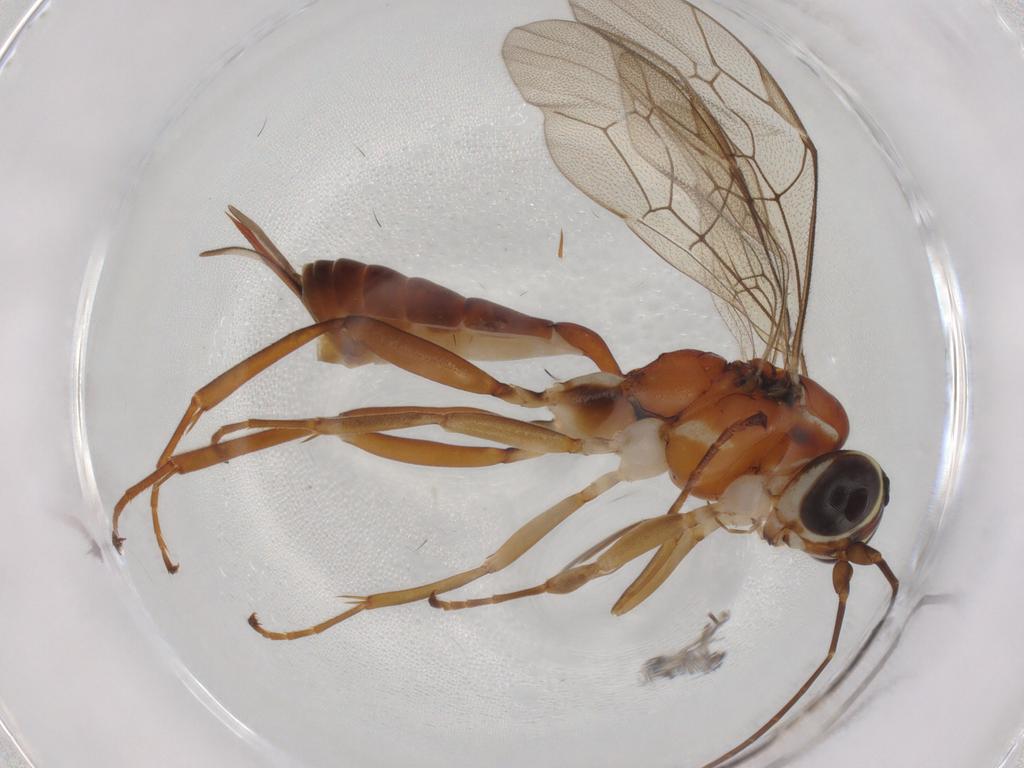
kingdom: Animalia
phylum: Arthropoda
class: Insecta
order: Hymenoptera
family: Ichneumonidae
